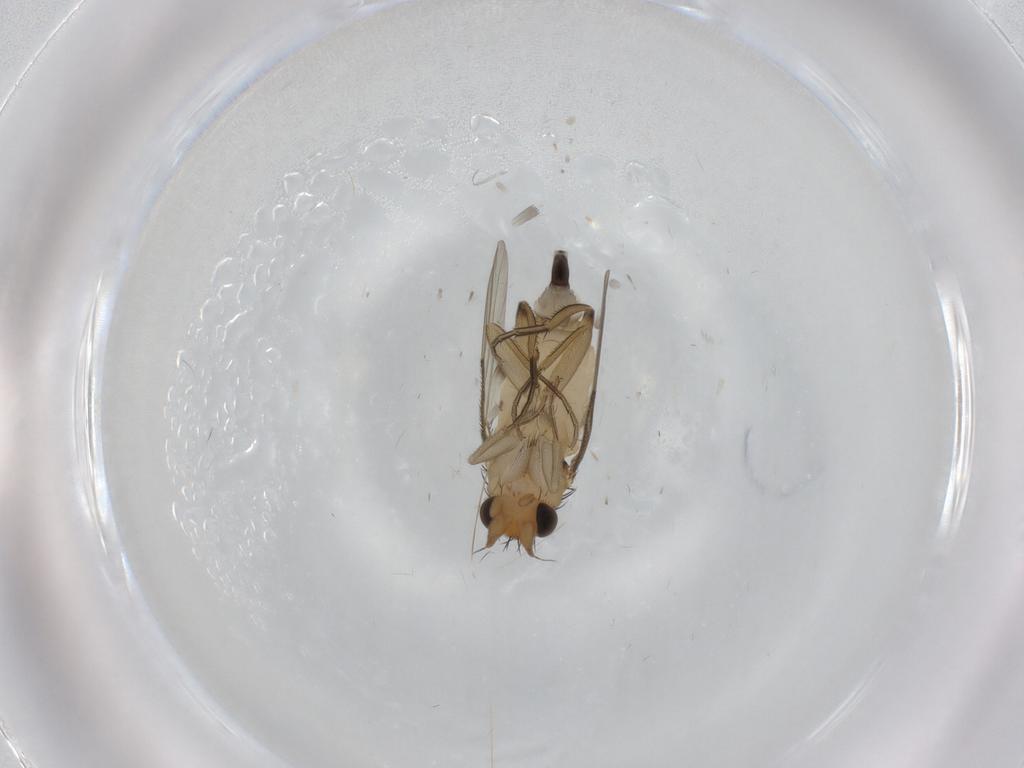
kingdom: Animalia
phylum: Arthropoda
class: Insecta
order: Diptera
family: Phoridae
